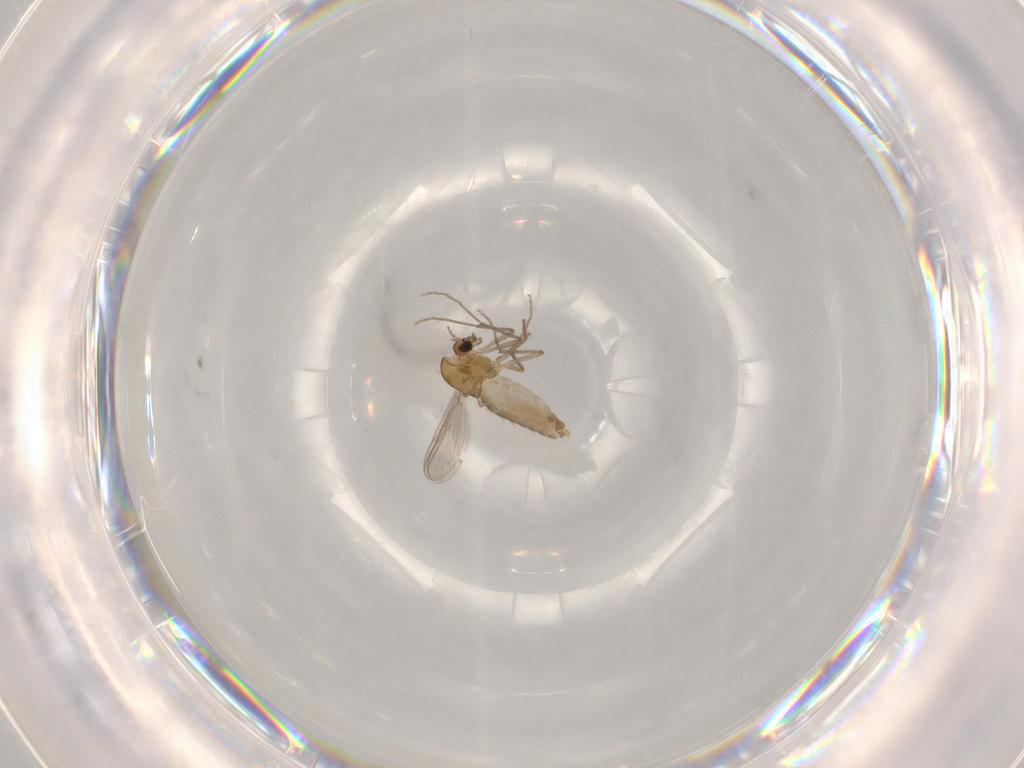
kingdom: Animalia
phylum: Arthropoda
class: Insecta
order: Diptera
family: Chironomidae
